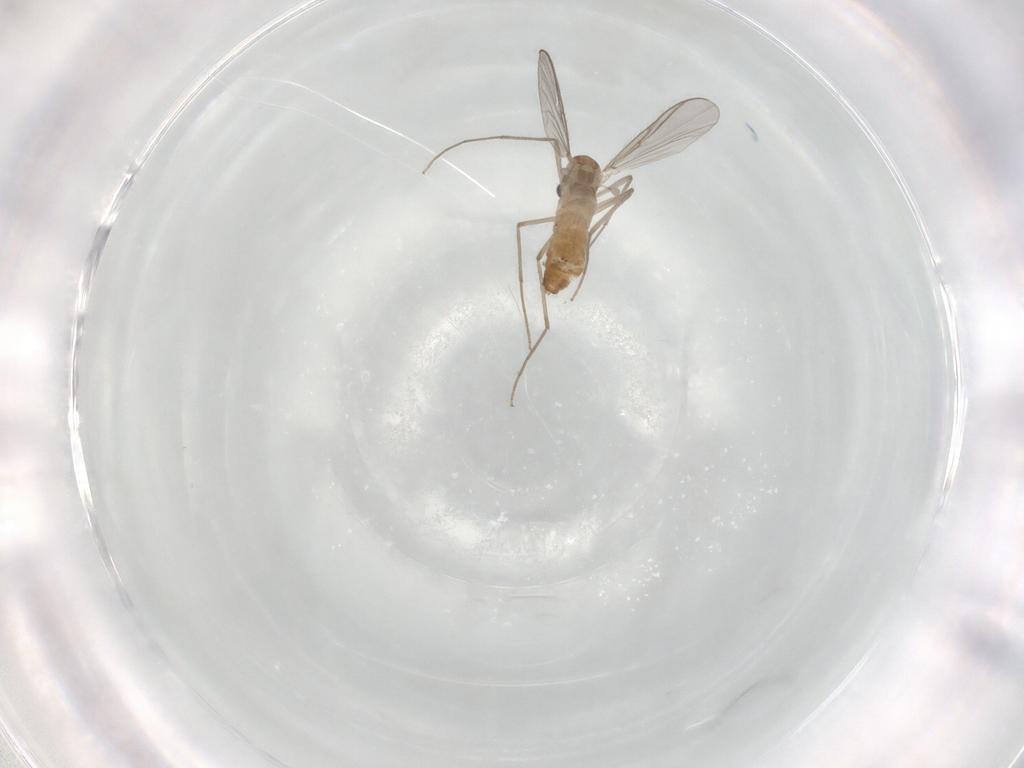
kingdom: Animalia
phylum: Arthropoda
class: Insecta
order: Diptera
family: Chironomidae
